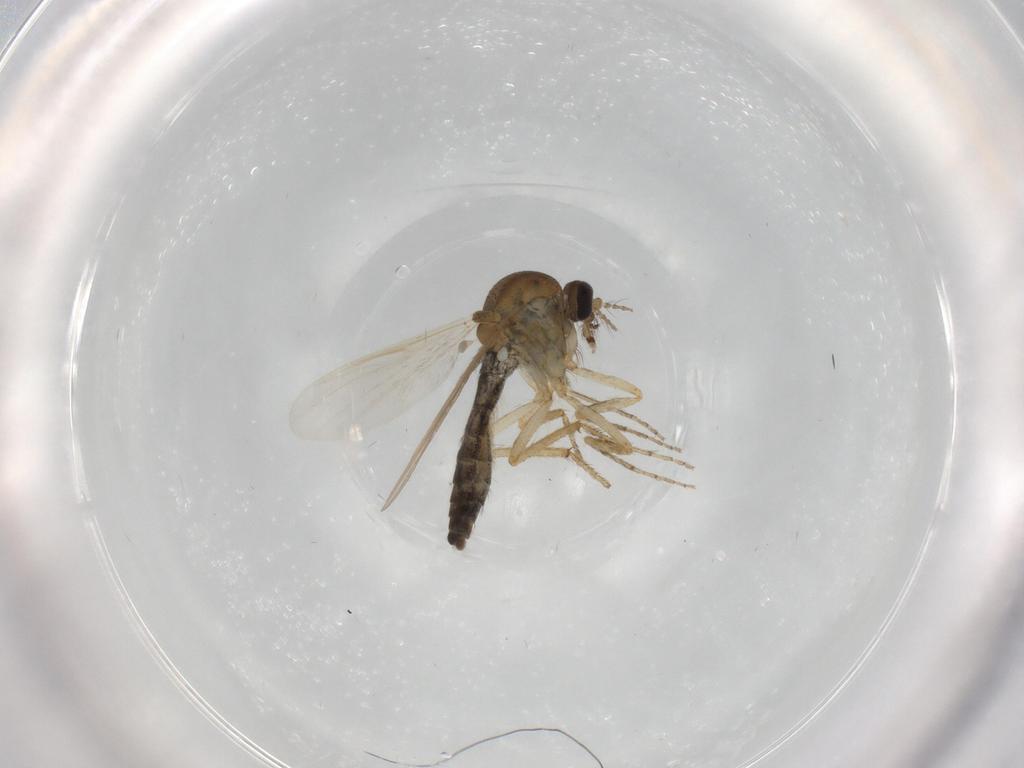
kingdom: Animalia
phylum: Arthropoda
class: Insecta
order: Diptera
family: Ceratopogonidae
